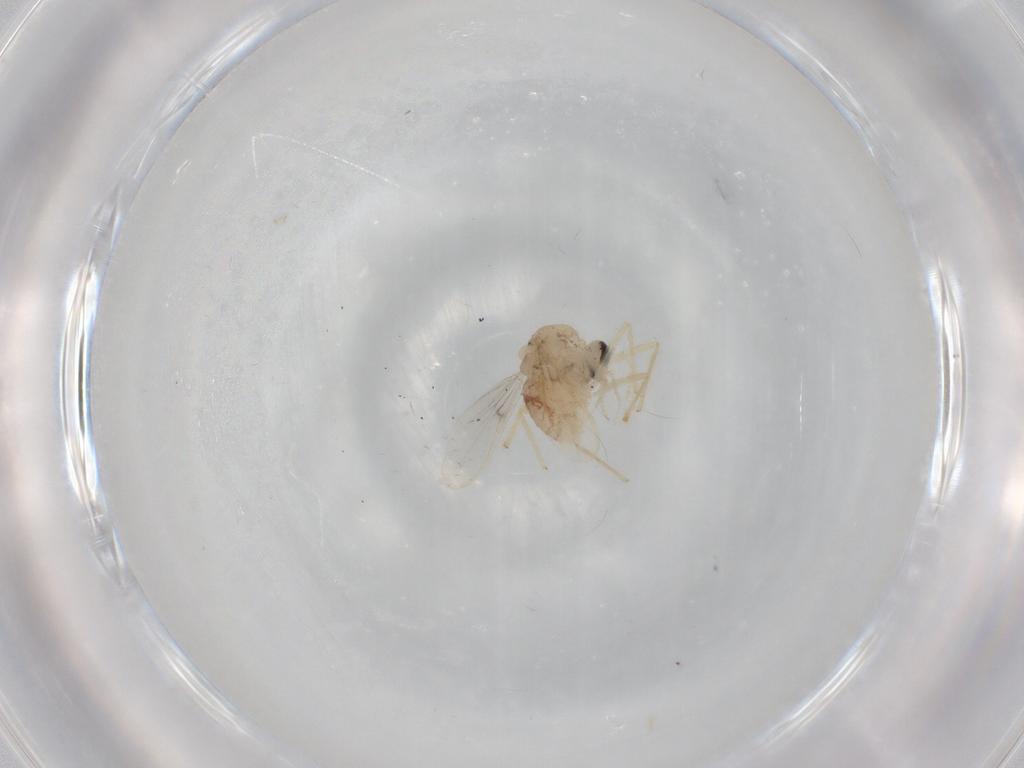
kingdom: Animalia
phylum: Arthropoda
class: Insecta
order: Diptera
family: Chironomidae
